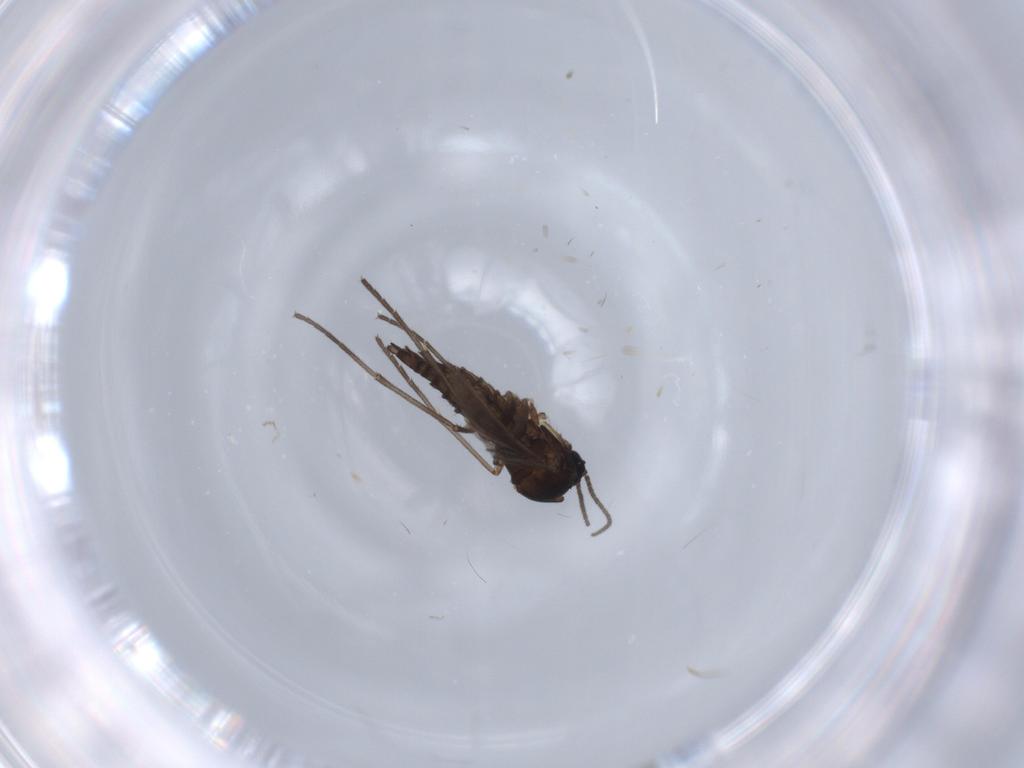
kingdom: Animalia
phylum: Arthropoda
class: Insecta
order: Diptera
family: Sciaridae
